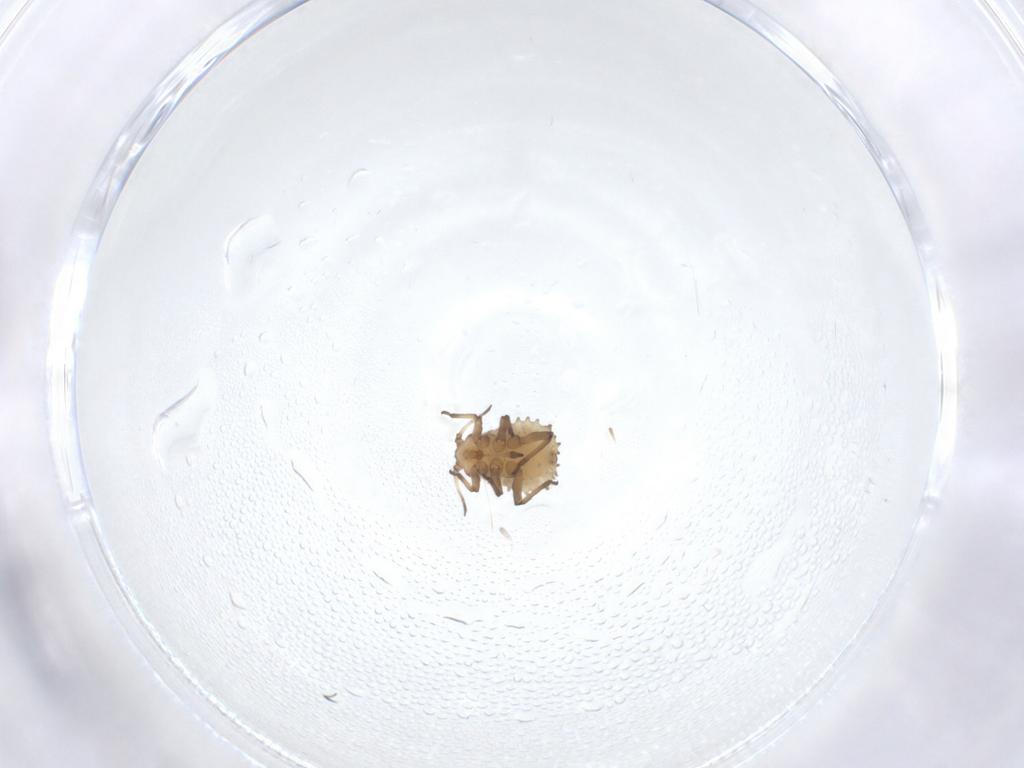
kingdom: Animalia
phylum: Arthropoda
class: Insecta
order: Hemiptera
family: Aphididae
